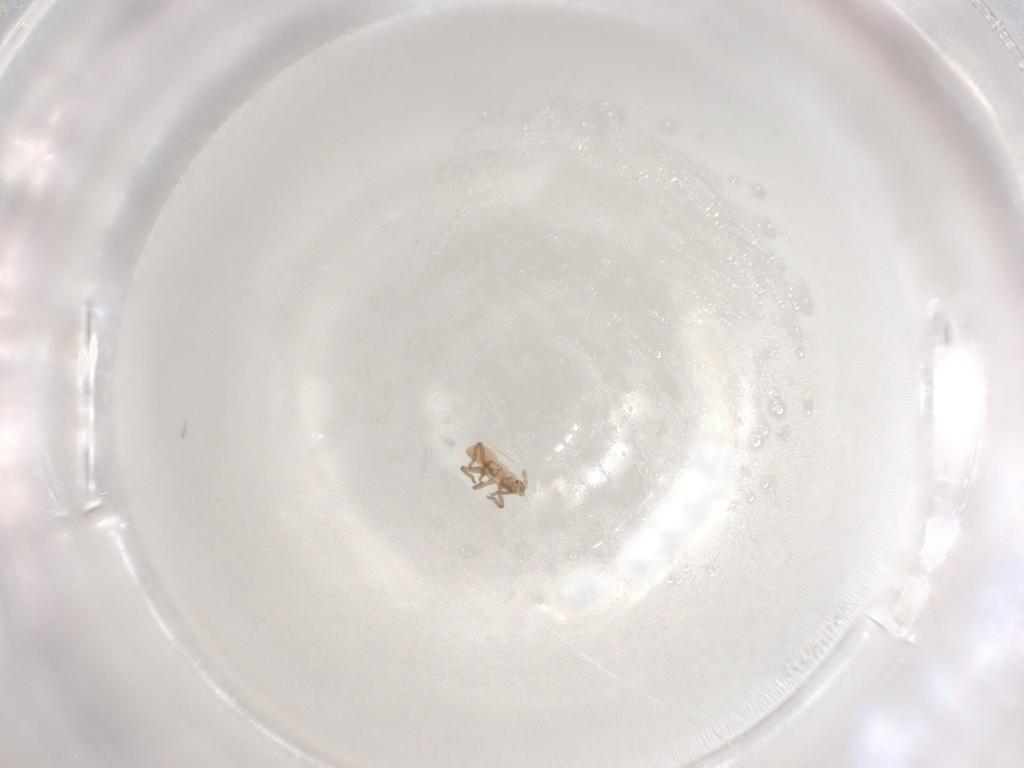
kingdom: Animalia
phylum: Arthropoda
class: Insecta
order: Hemiptera
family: Aphididae
